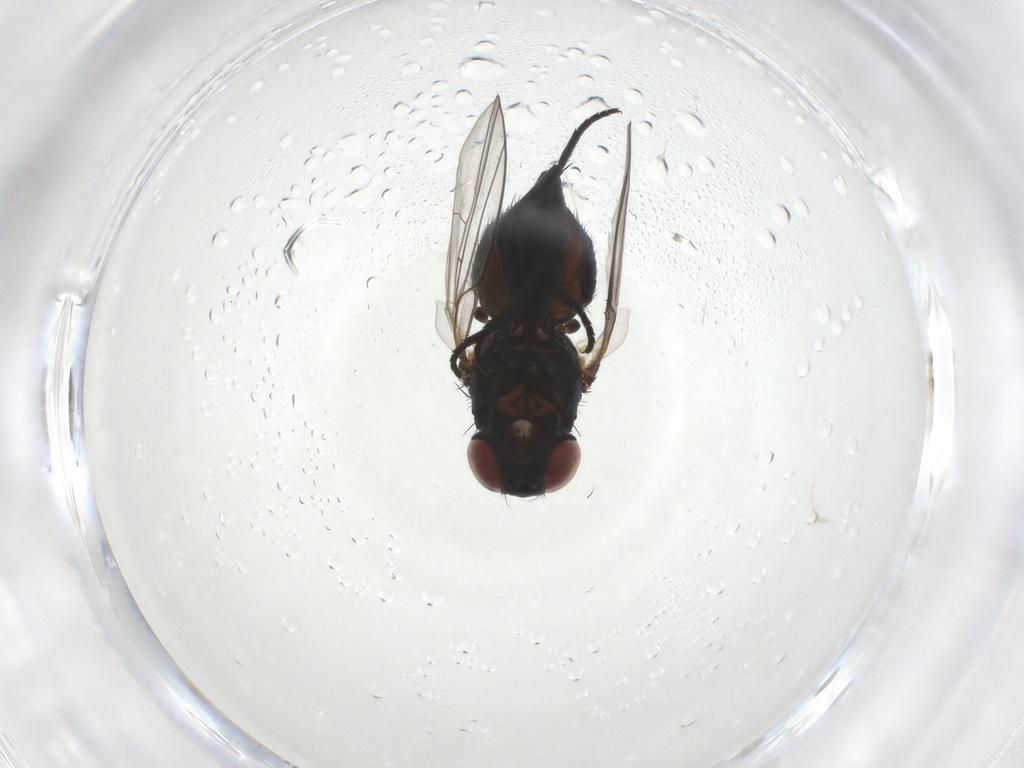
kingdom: Animalia
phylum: Arthropoda
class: Insecta
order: Diptera
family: Agromyzidae
